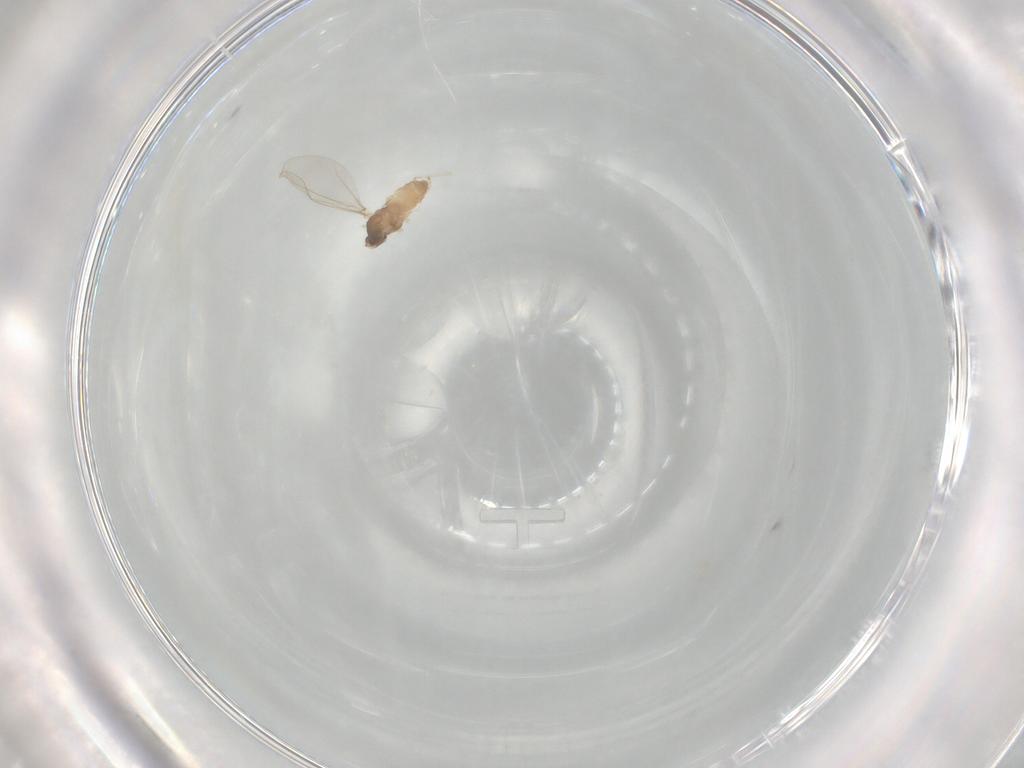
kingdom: Animalia
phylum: Arthropoda
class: Insecta
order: Diptera
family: Cecidomyiidae
